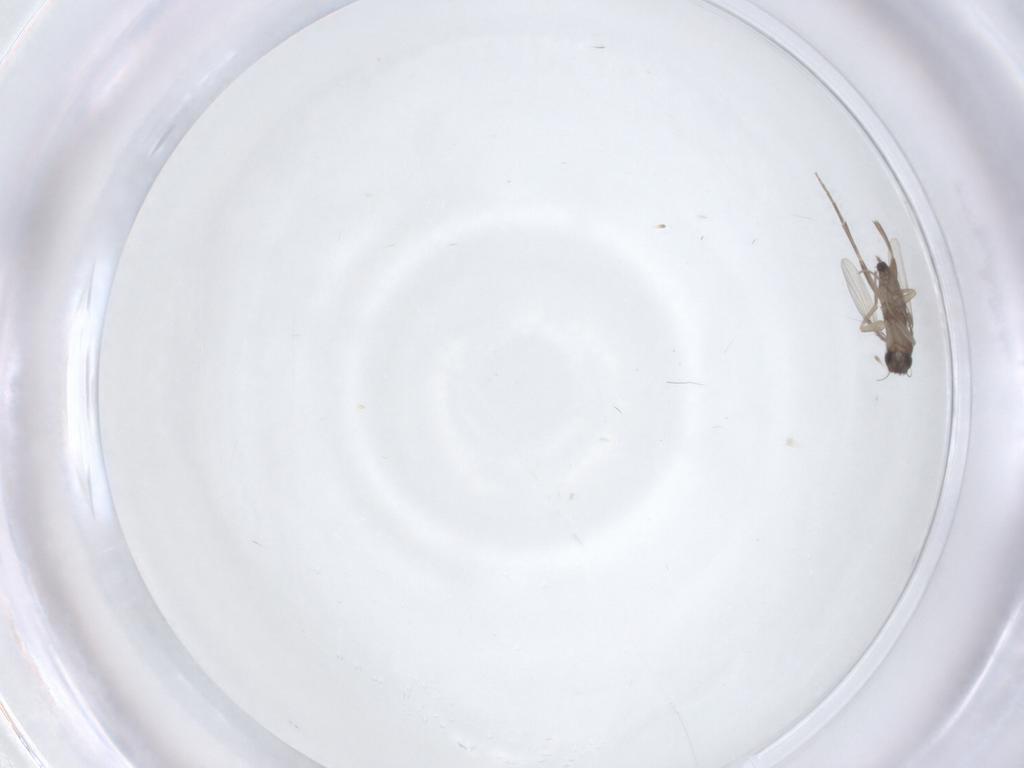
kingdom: Animalia
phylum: Arthropoda
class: Insecta
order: Diptera
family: Phoridae
